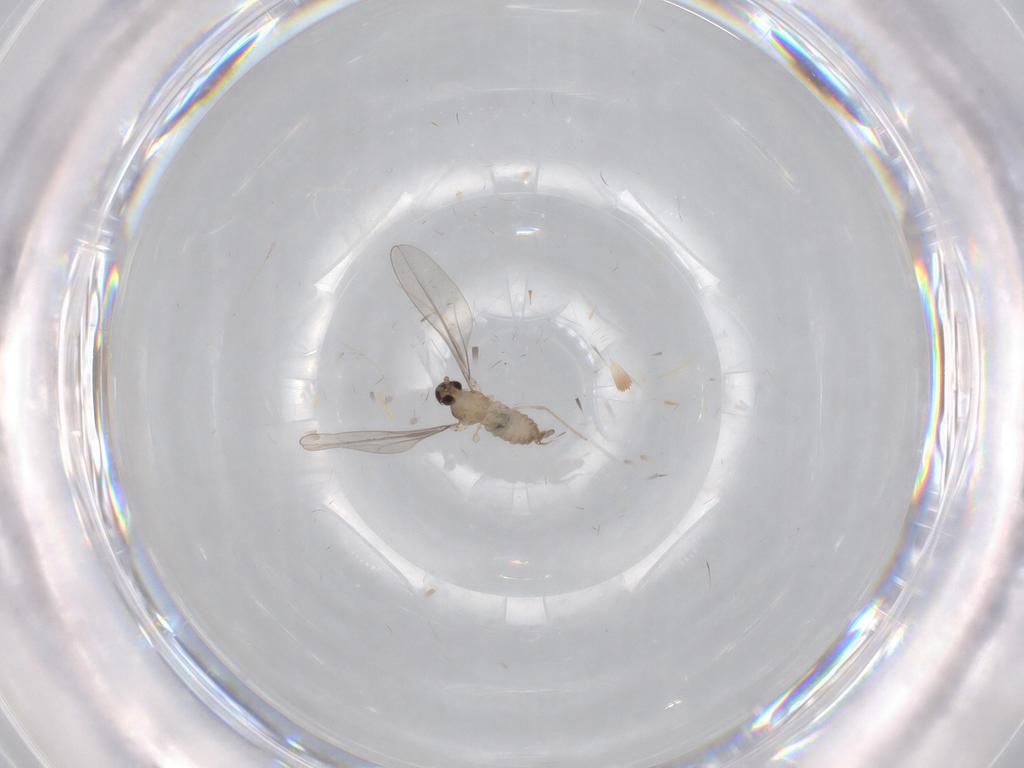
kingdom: Animalia
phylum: Arthropoda
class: Insecta
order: Diptera
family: Cecidomyiidae
